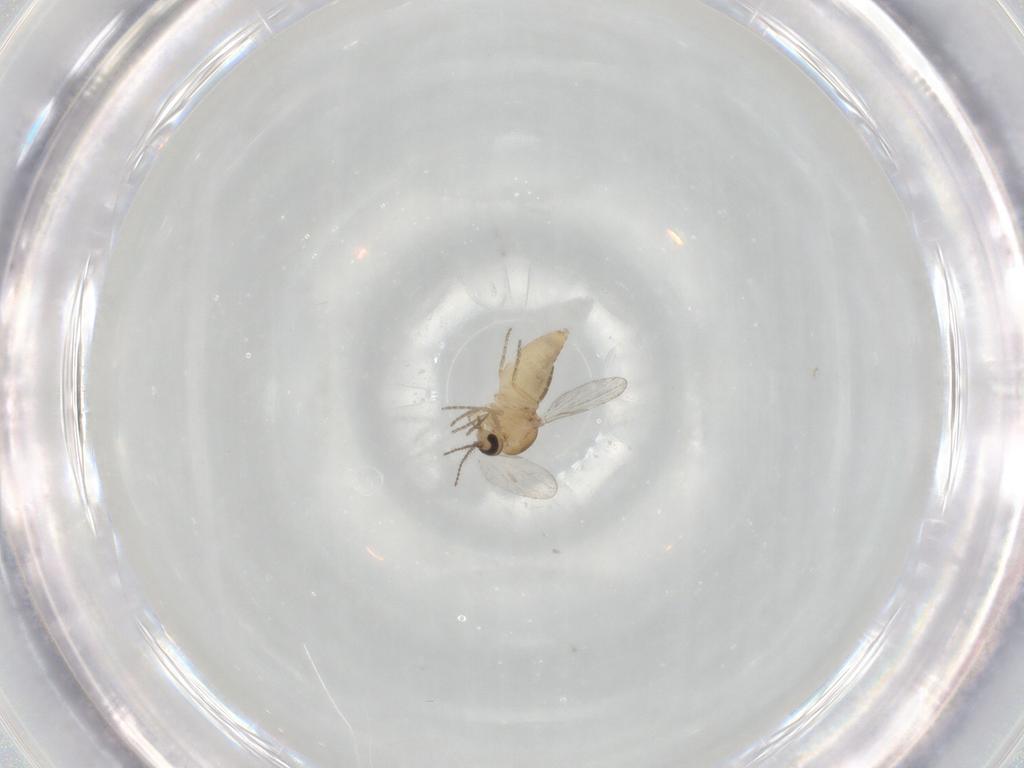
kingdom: Animalia
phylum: Arthropoda
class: Insecta
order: Diptera
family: Ceratopogonidae
